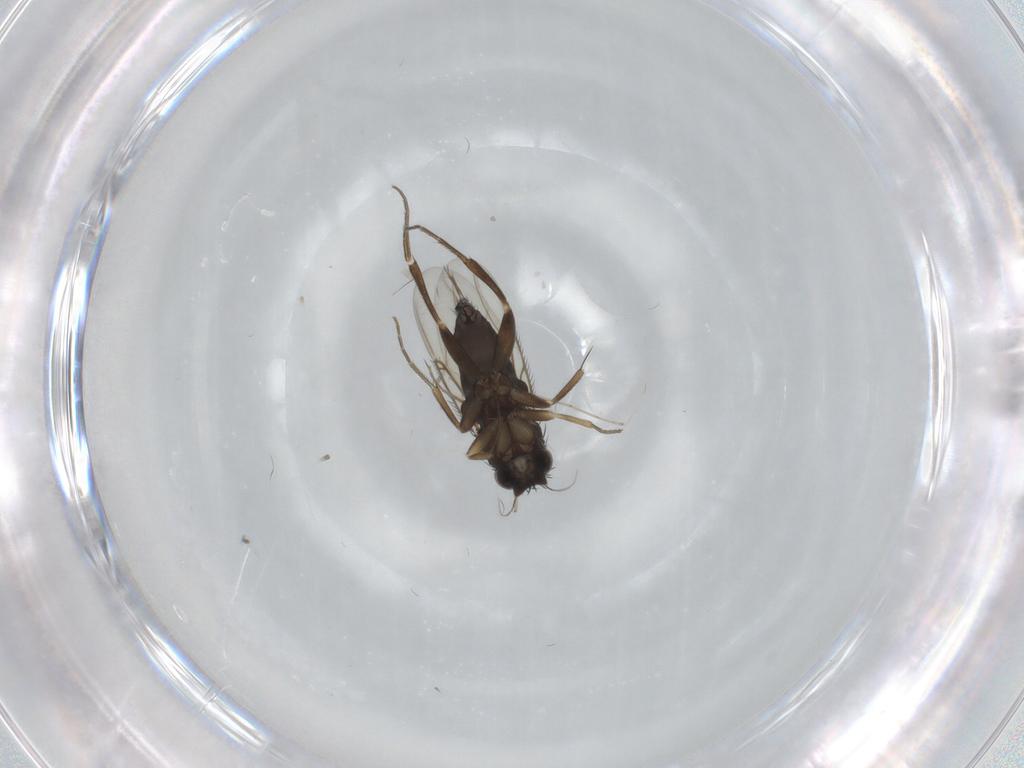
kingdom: Animalia
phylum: Arthropoda
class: Insecta
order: Diptera
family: Phoridae
